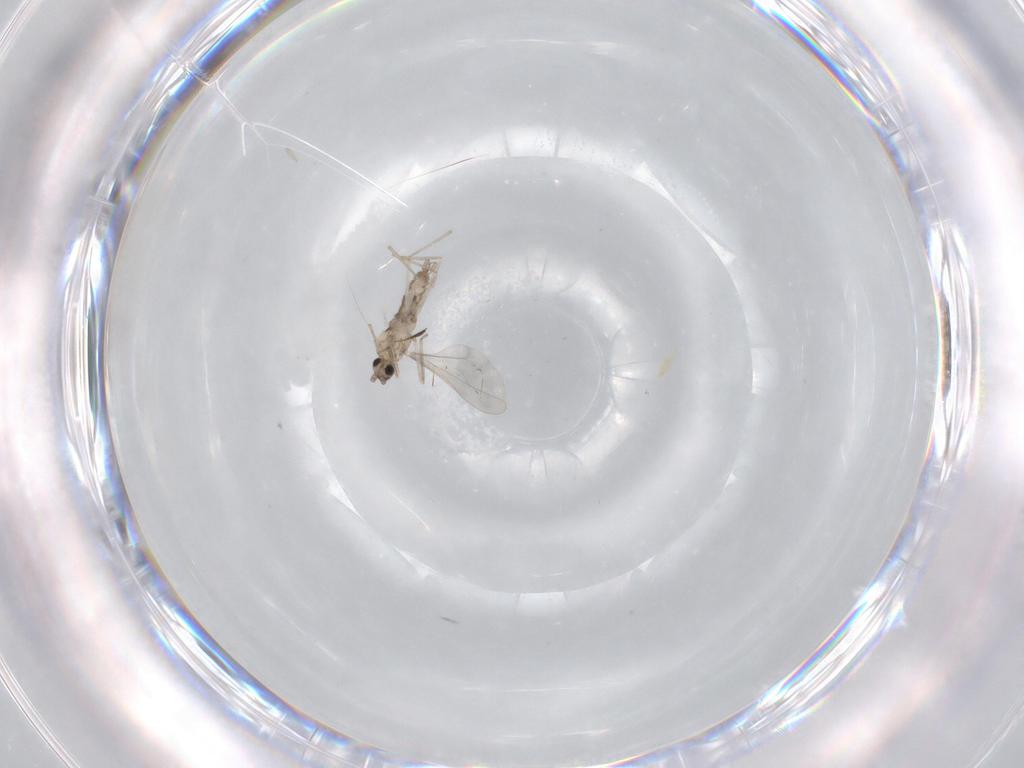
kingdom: Animalia
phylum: Arthropoda
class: Insecta
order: Diptera
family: Cecidomyiidae
